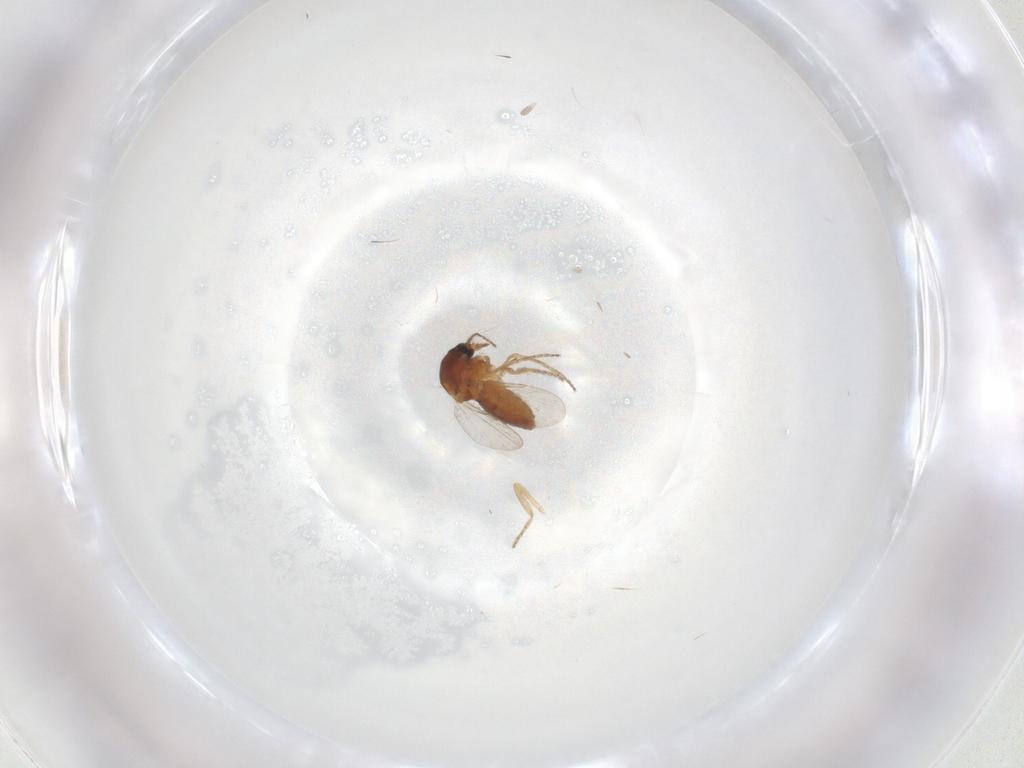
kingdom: Animalia
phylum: Arthropoda
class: Insecta
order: Diptera
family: Ceratopogonidae
